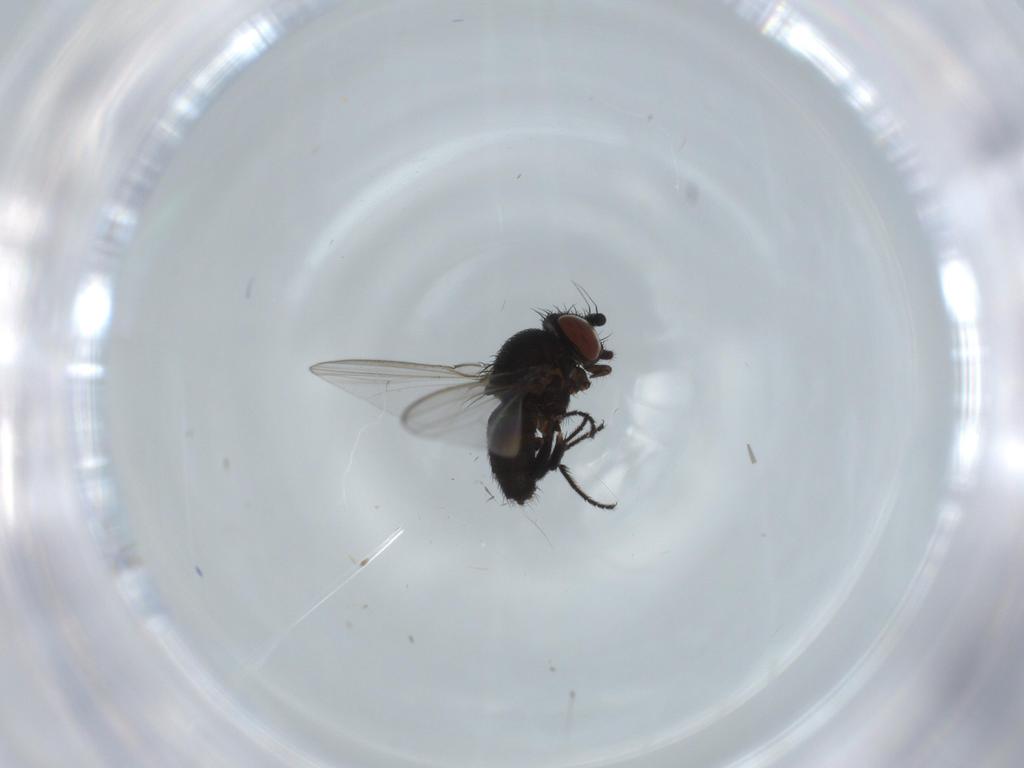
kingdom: Animalia
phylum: Arthropoda
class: Insecta
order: Diptera
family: Milichiidae
